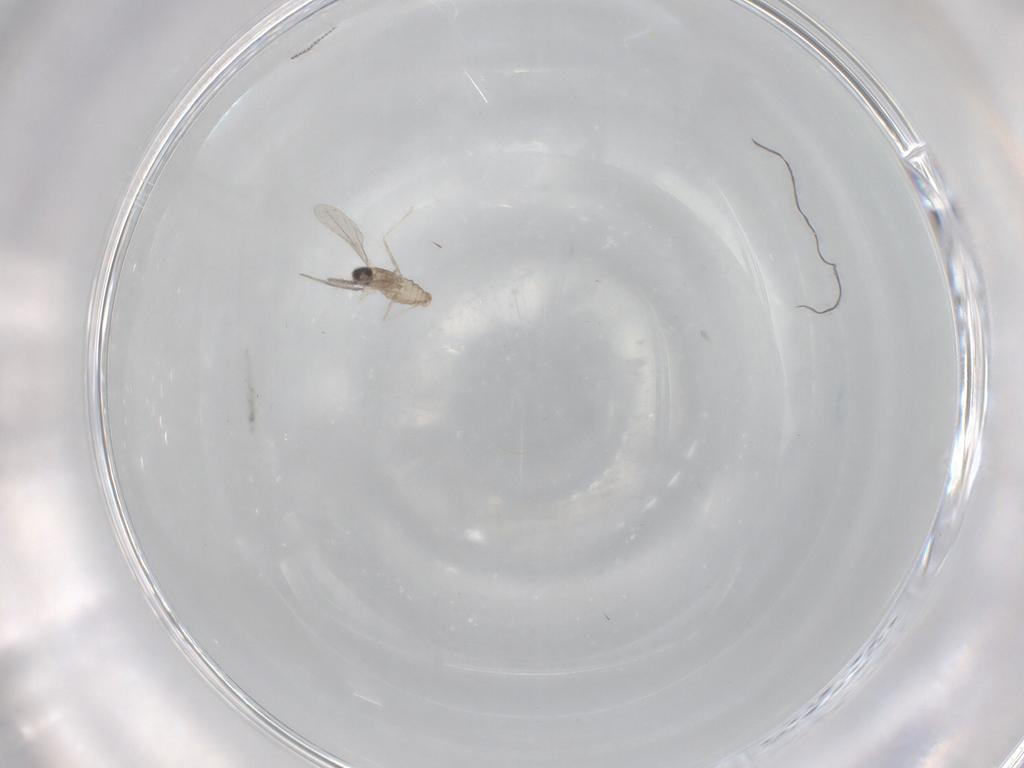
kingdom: Animalia
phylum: Arthropoda
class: Insecta
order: Diptera
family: Cecidomyiidae
